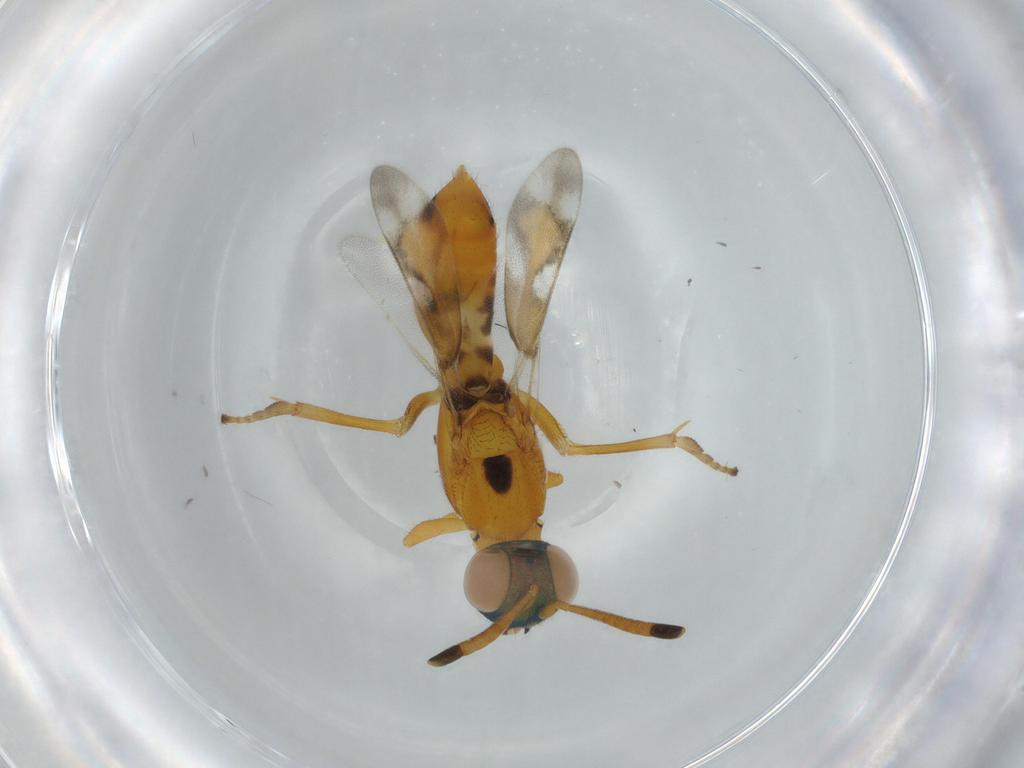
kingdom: Animalia
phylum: Arthropoda
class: Insecta
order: Hymenoptera
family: Eupelmidae
